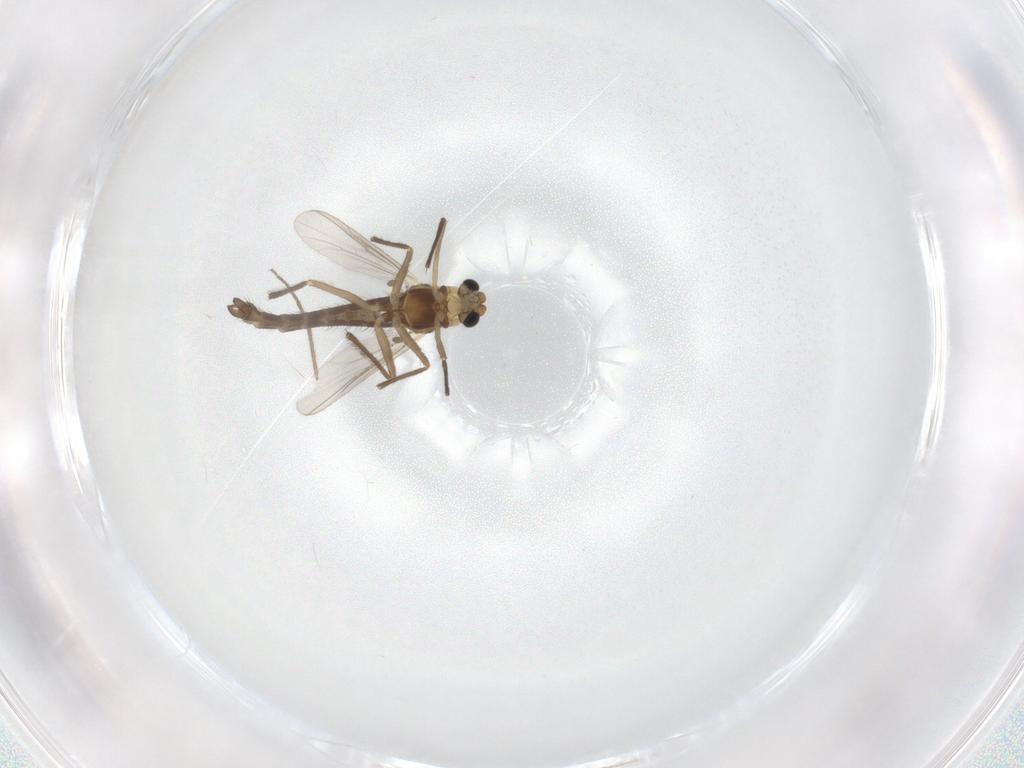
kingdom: Animalia
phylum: Arthropoda
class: Insecta
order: Diptera
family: Chironomidae
